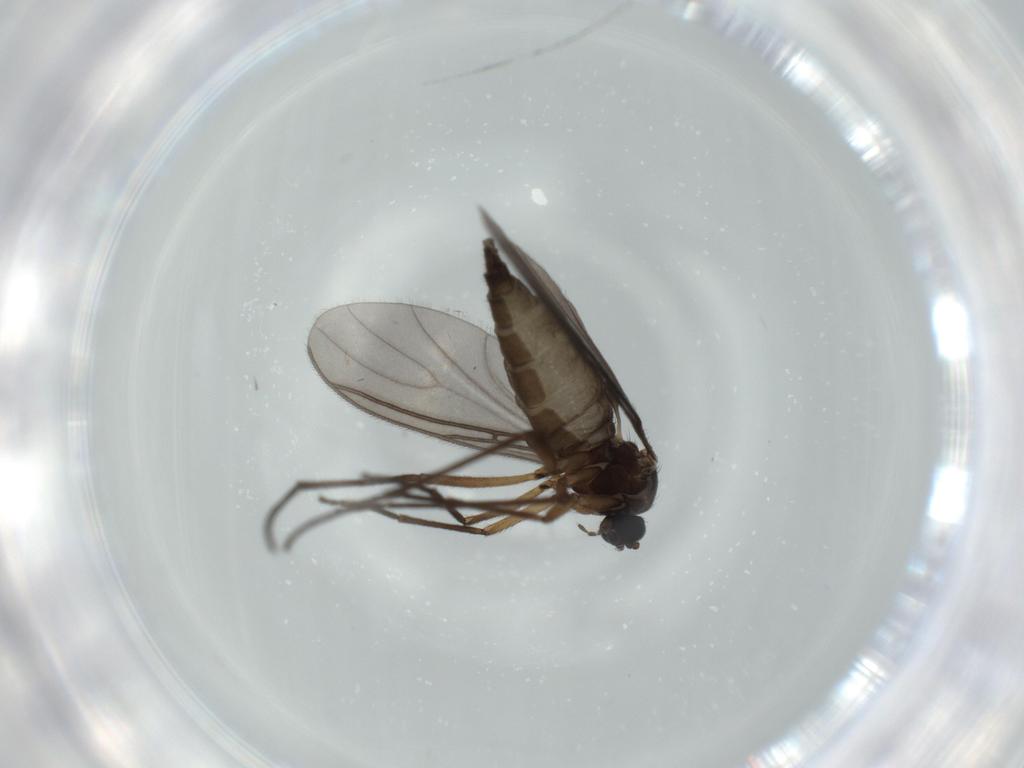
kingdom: Animalia
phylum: Arthropoda
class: Insecta
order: Diptera
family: Sciaridae
